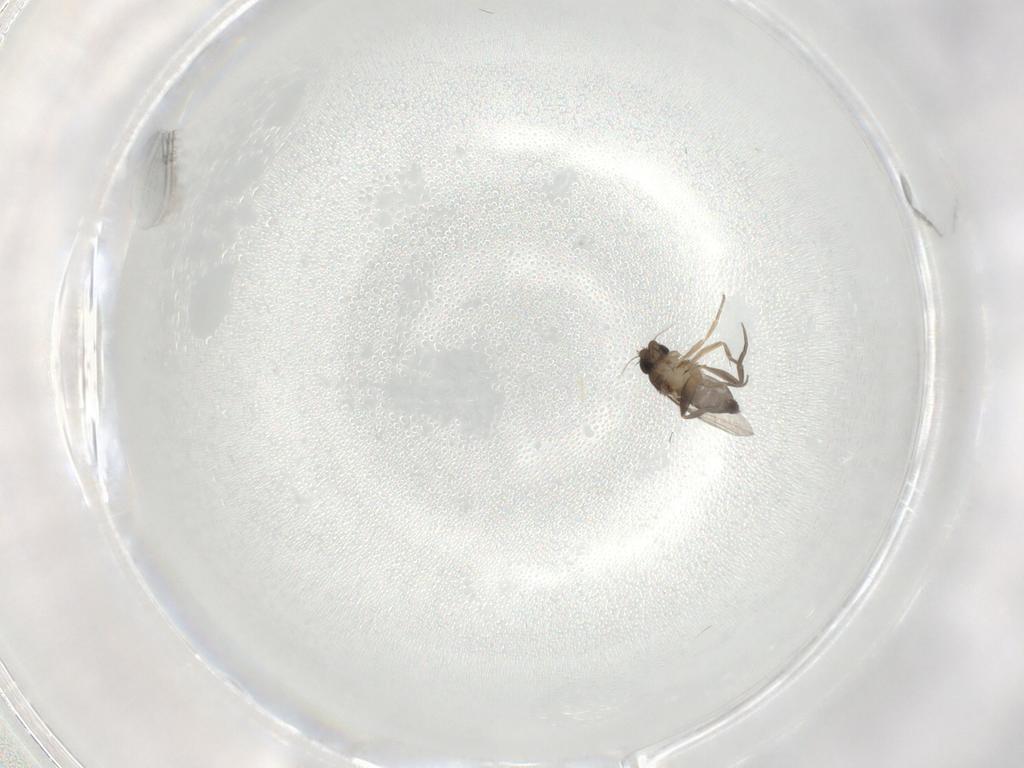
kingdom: Animalia
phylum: Arthropoda
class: Insecta
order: Diptera
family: Phoridae
